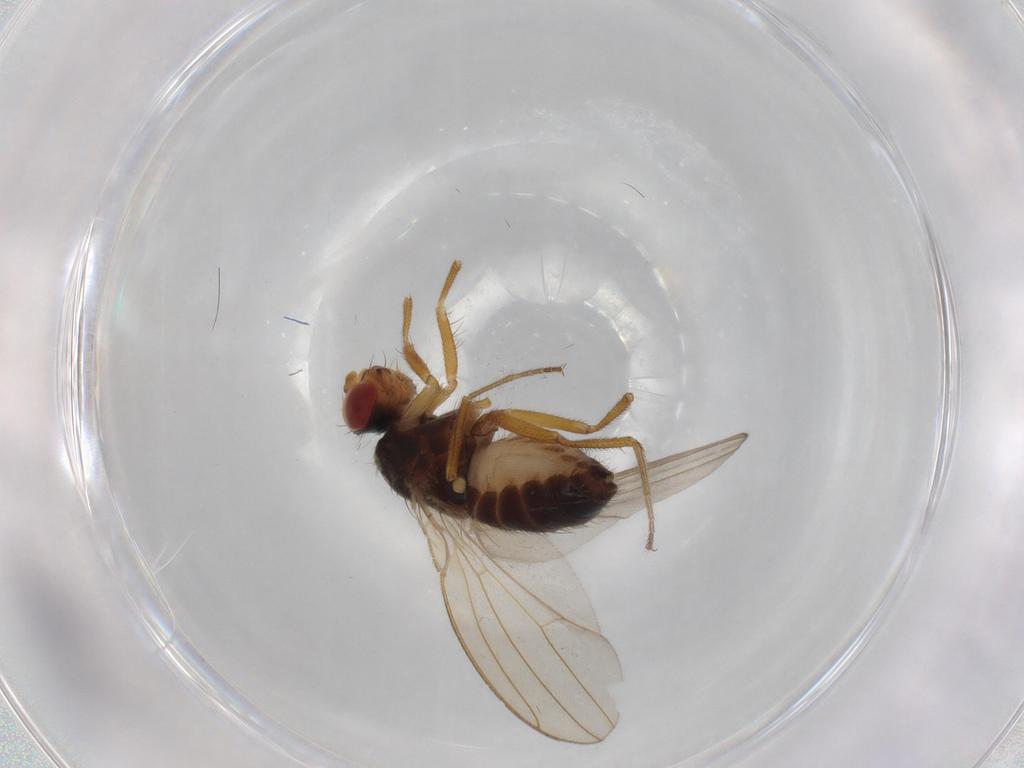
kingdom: Animalia
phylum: Arthropoda
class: Insecta
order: Diptera
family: Drosophilidae
